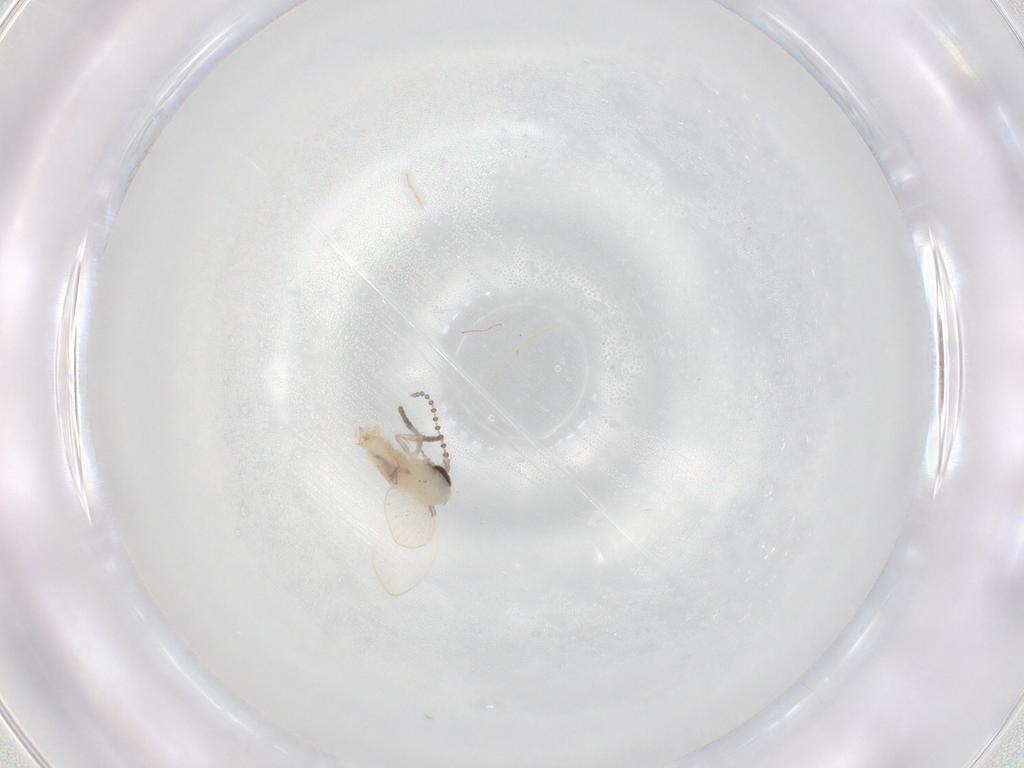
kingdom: Animalia
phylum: Arthropoda
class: Insecta
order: Diptera
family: Psychodidae
